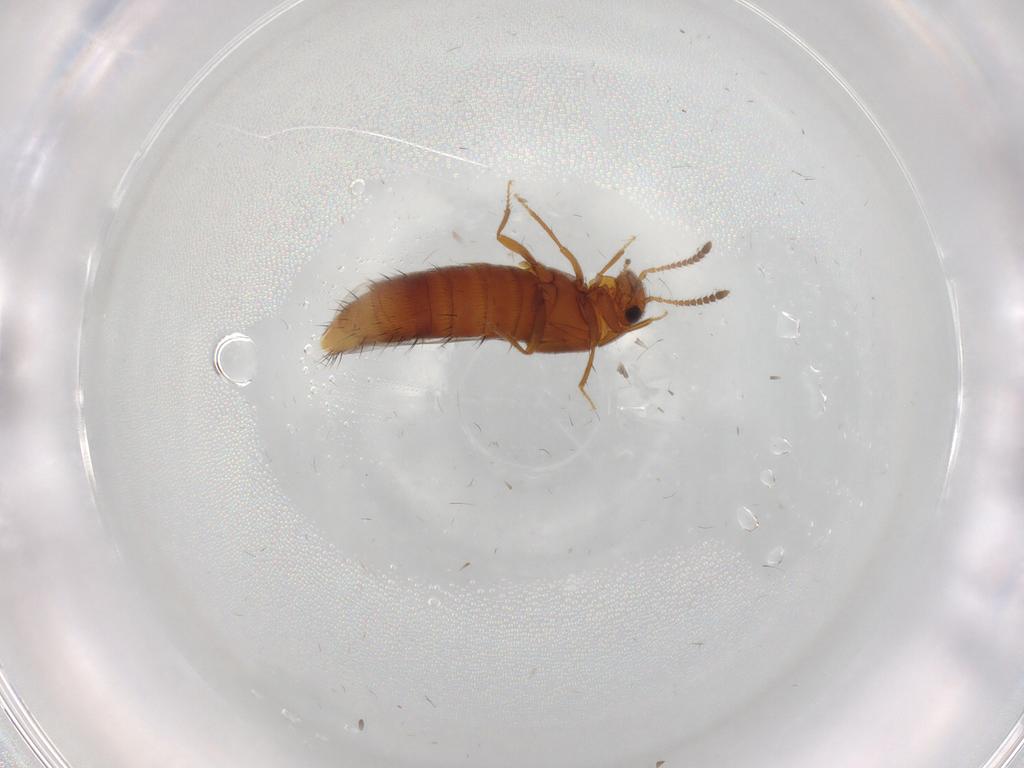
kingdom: Animalia
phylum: Arthropoda
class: Insecta
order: Coleoptera
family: Staphylinidae
